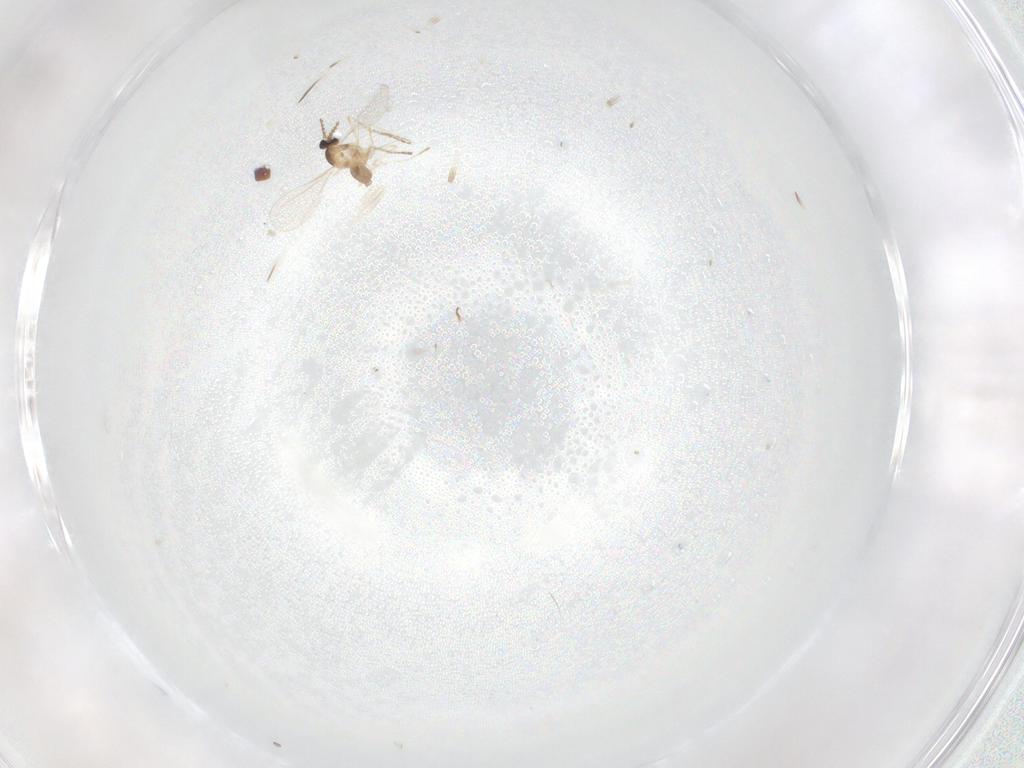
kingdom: Animalia
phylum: Arthropoda
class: Insecta
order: Diptera
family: Cecidomyiidae
